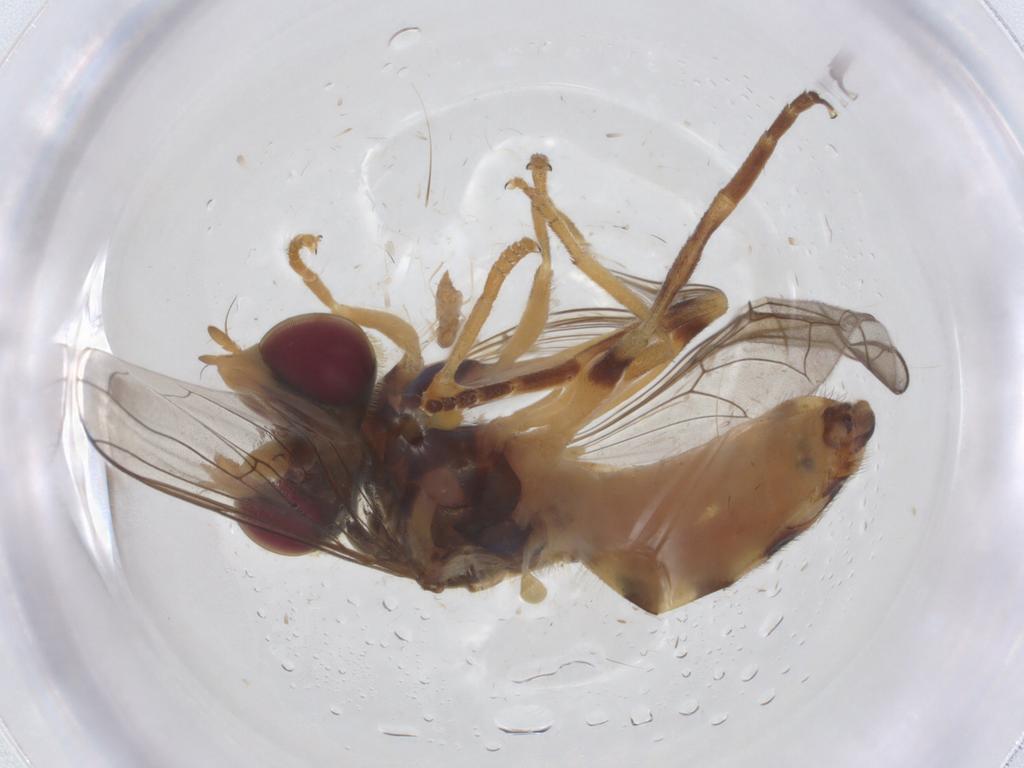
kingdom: Animalia
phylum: Arthropoda
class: Insecta
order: Diptera
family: Syrphidae
